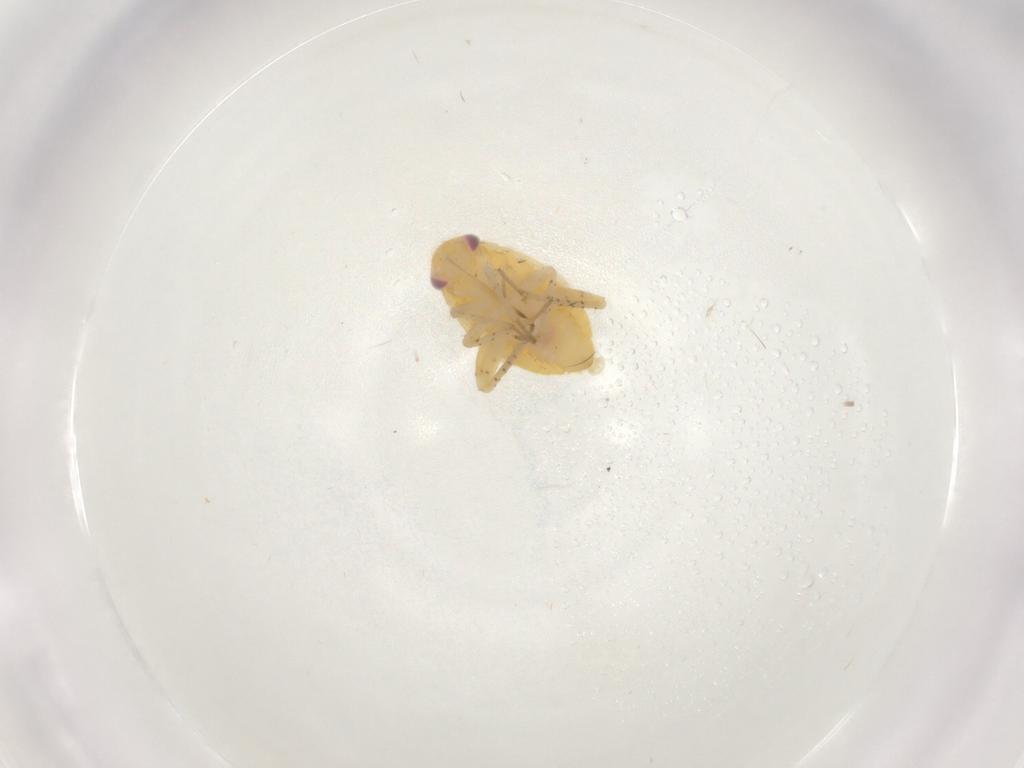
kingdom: Animalia
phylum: Arthropoda
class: Insecta
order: Hemiptera
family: Miridae
